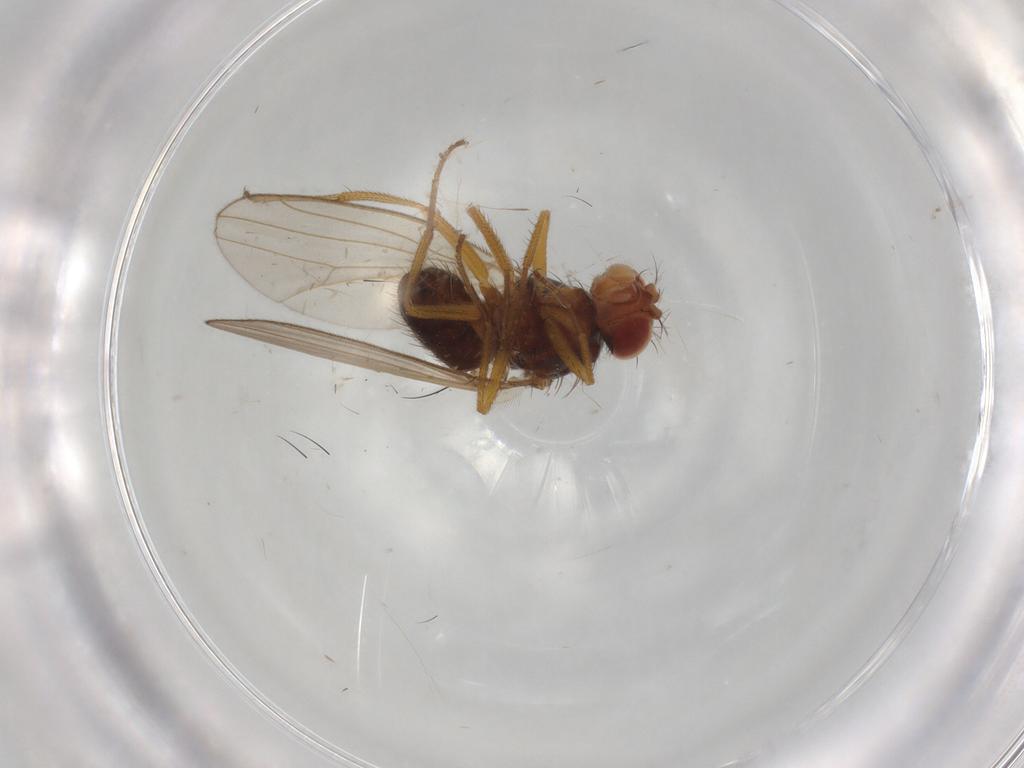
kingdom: Animalia
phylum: Arthropoda
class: Insecta
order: Diptera
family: Drosophilidae
